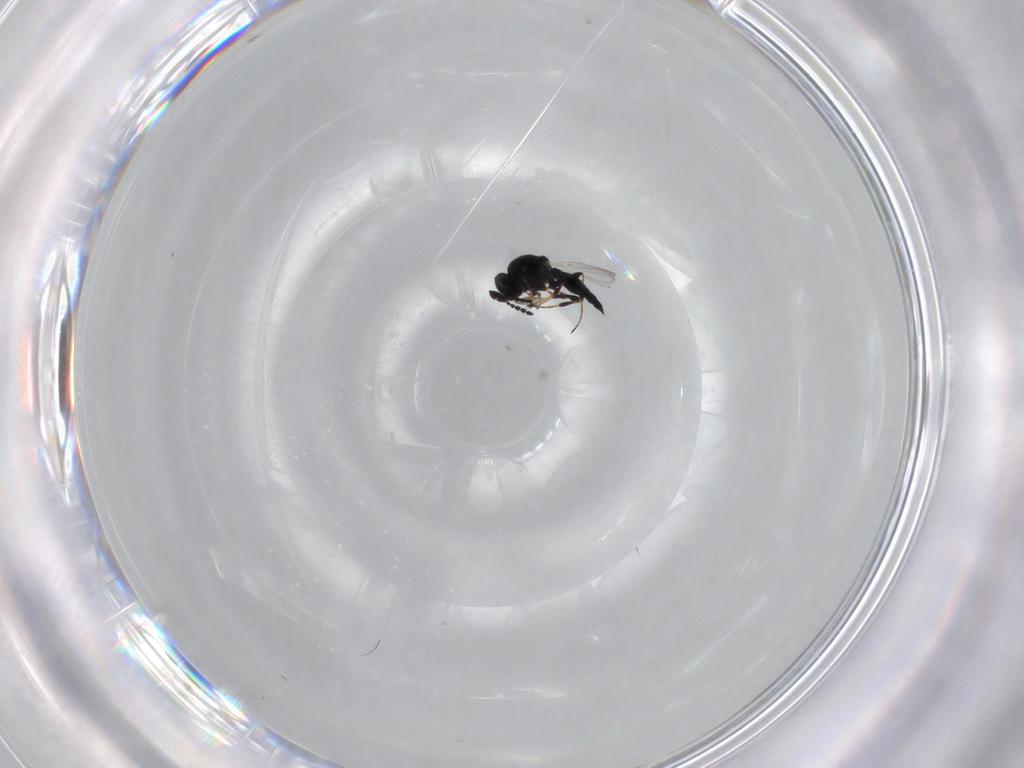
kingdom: Animalia
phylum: Arthropoda
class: Insecta
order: Hymenoptera
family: Platygastridae
